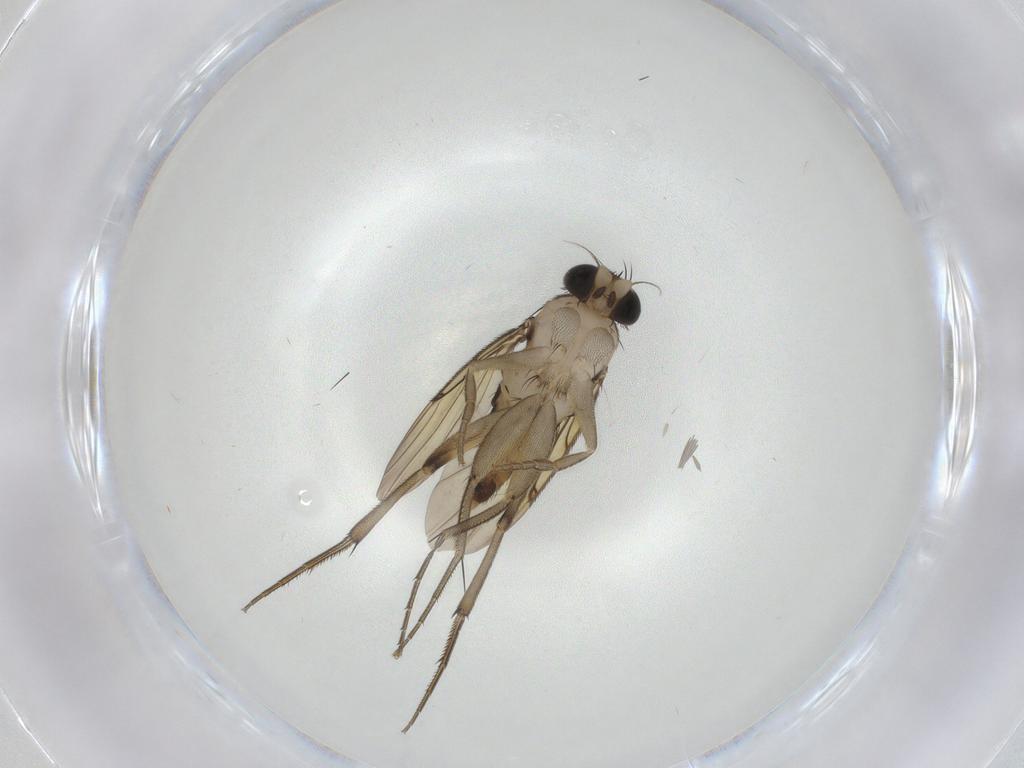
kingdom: Animalia
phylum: Arthropoda
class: Insecta
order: Diptera
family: Phoridae
